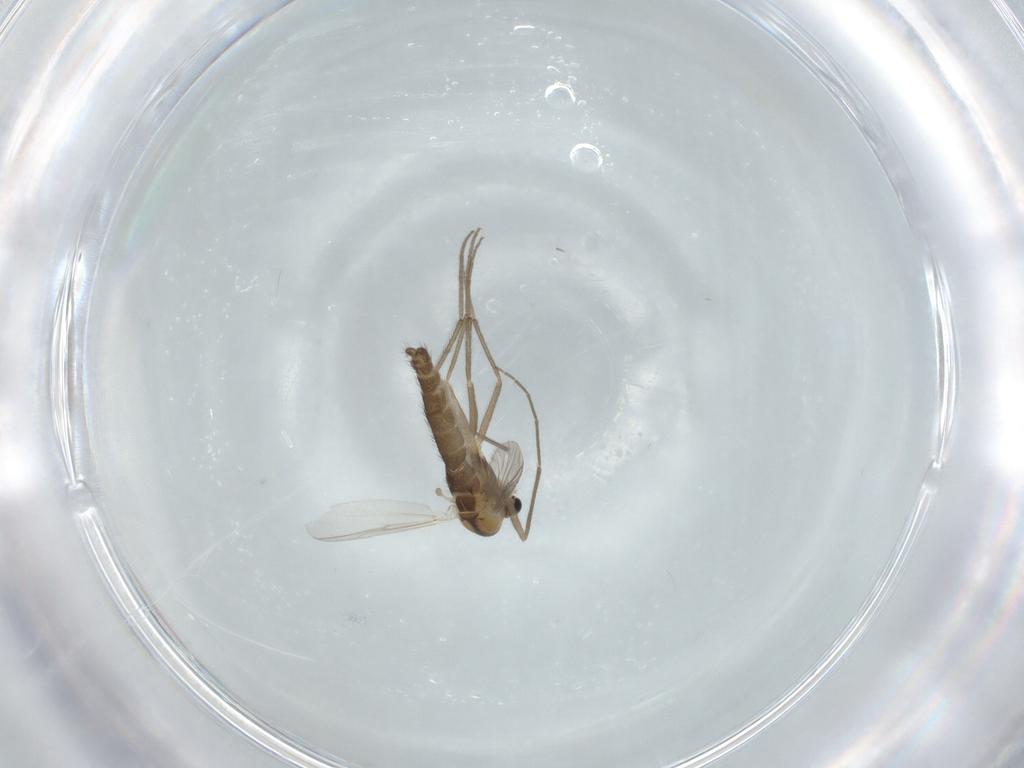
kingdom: Animalia
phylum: Arthropoda
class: Insecta
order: Diptera
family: Chironomidae
